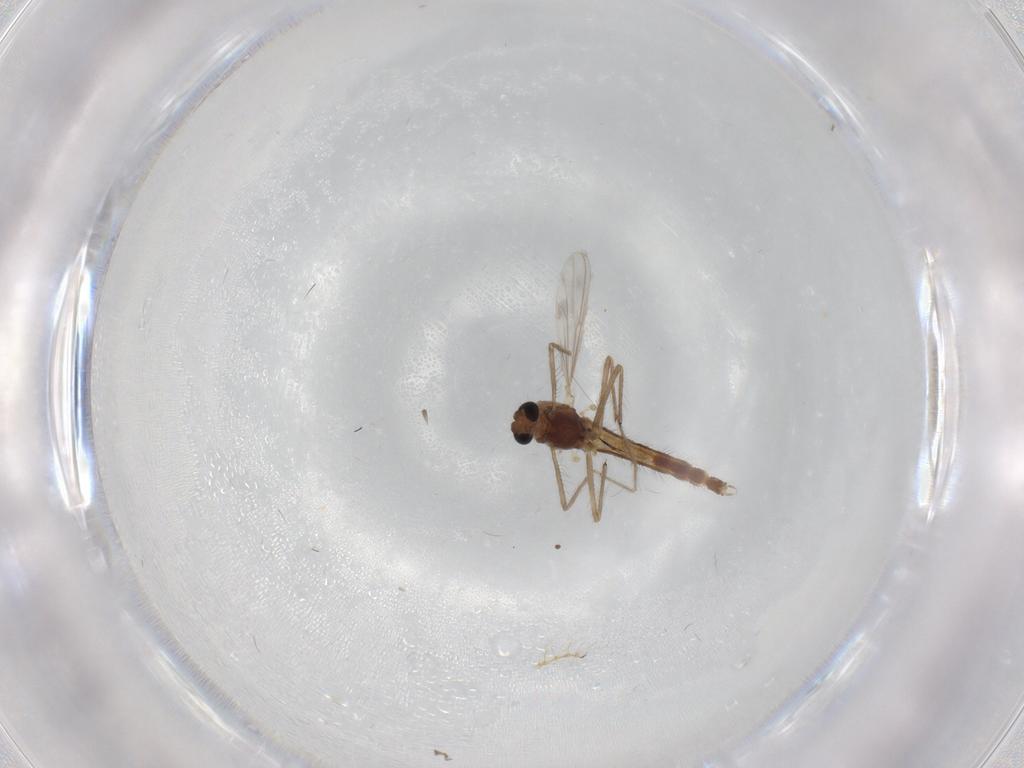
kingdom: Animalia
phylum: Arthropoda
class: Insecta
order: Diptera
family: Chironomidae
